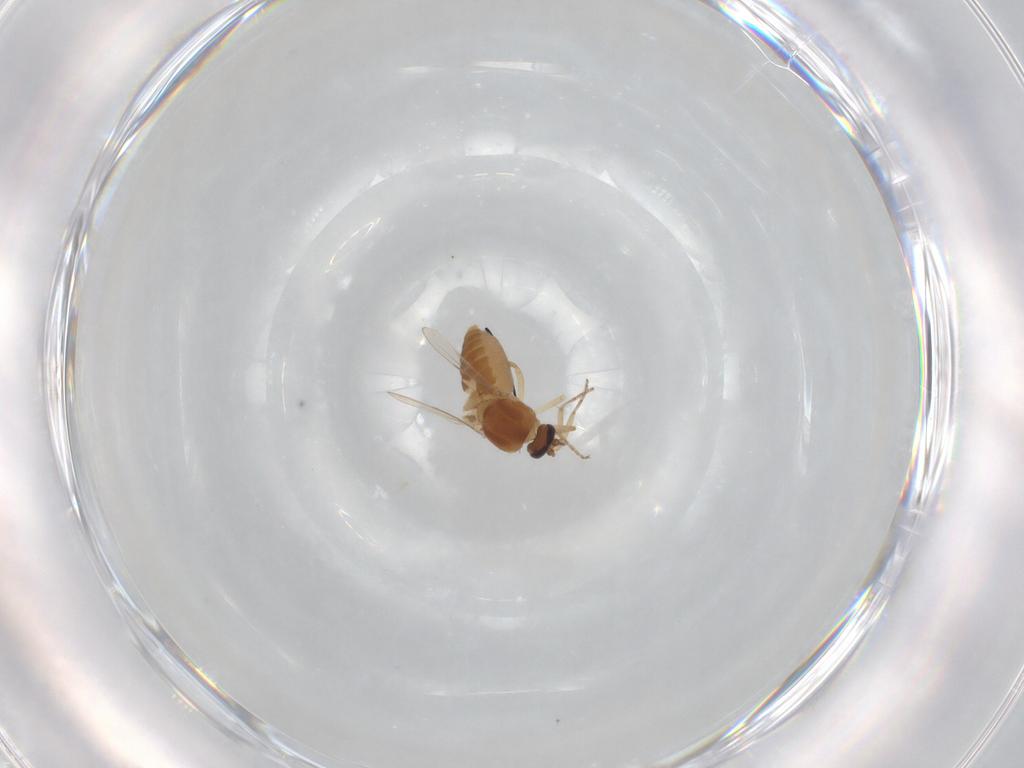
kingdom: Animalia
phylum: Arthropoda
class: Insecta
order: Diptera
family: Ceratopogonidae
